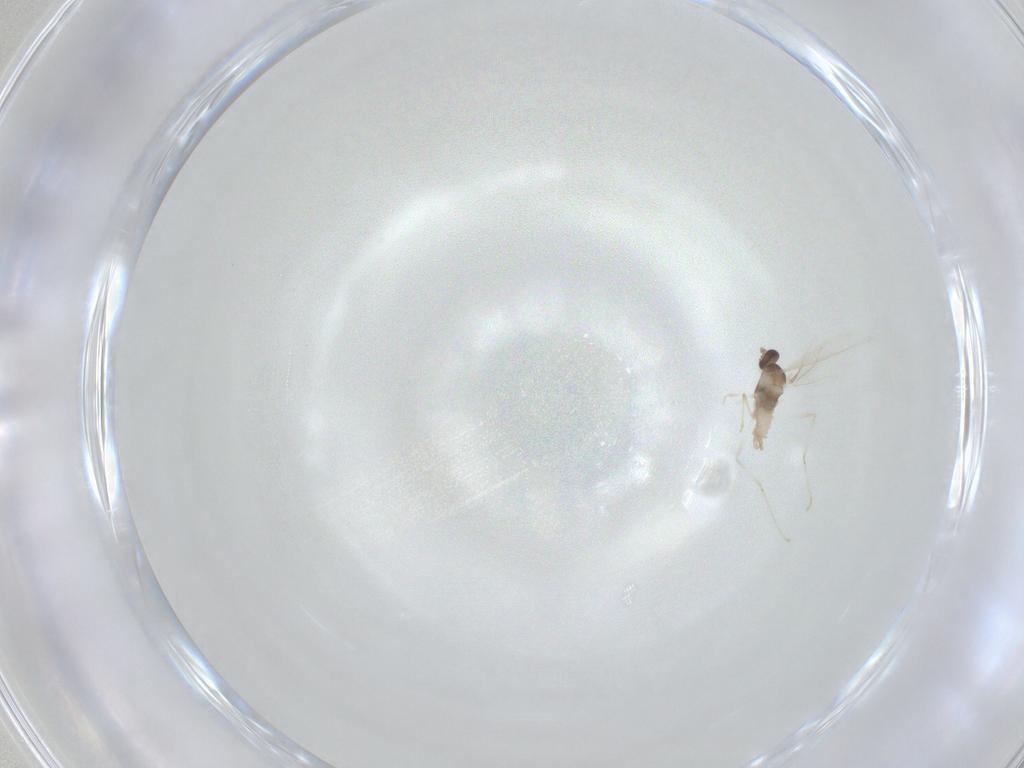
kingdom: Animalia
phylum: Arthropoda
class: Insecta
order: Diptera
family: Cecidomyiidae
